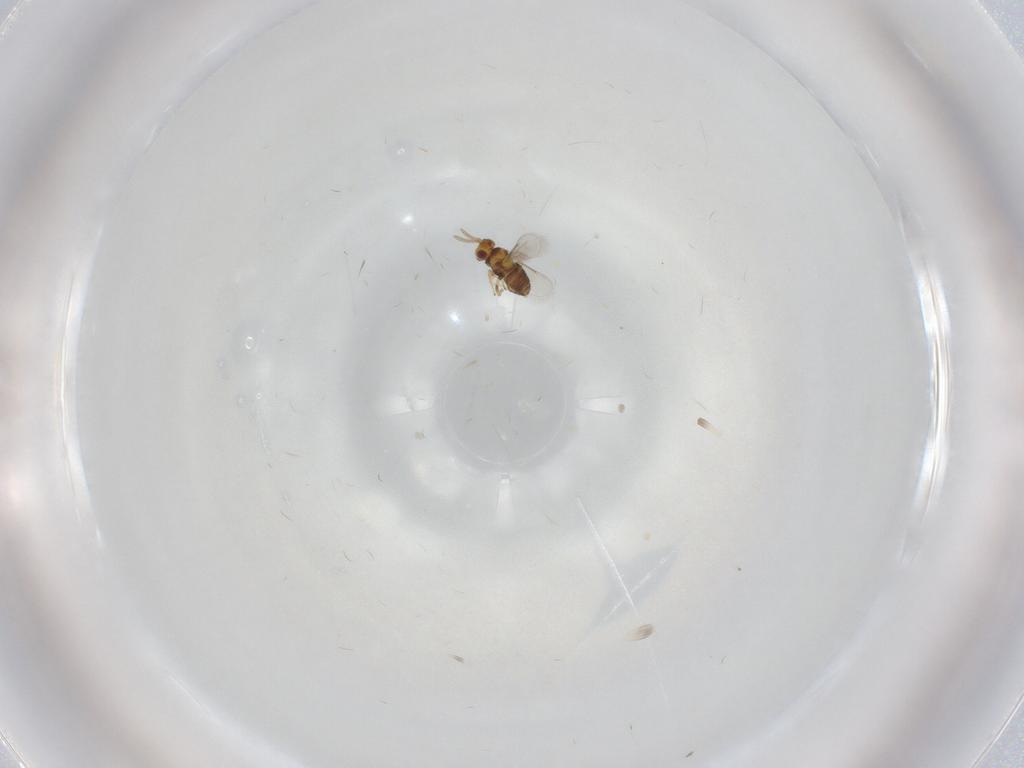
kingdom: Animalia
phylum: Arthropoda
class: Insecta
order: Hymenoptera
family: Aphelinidae
